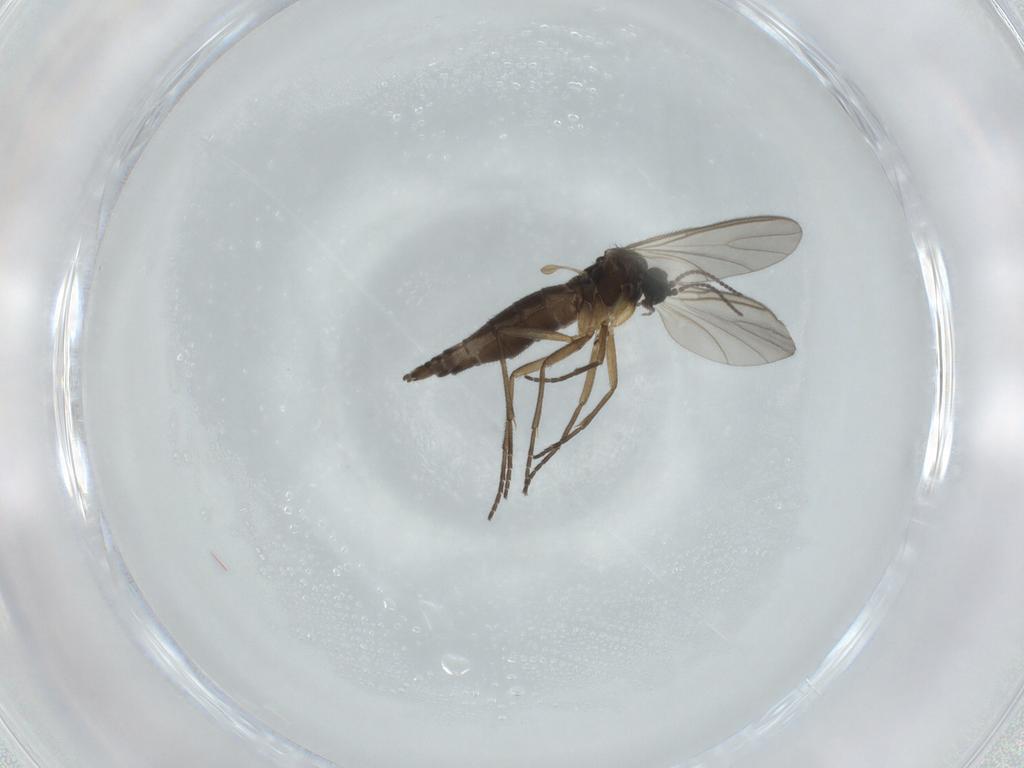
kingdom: Animalia
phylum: Arthropoda
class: Insecta
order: Diptera
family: Sciaridae
